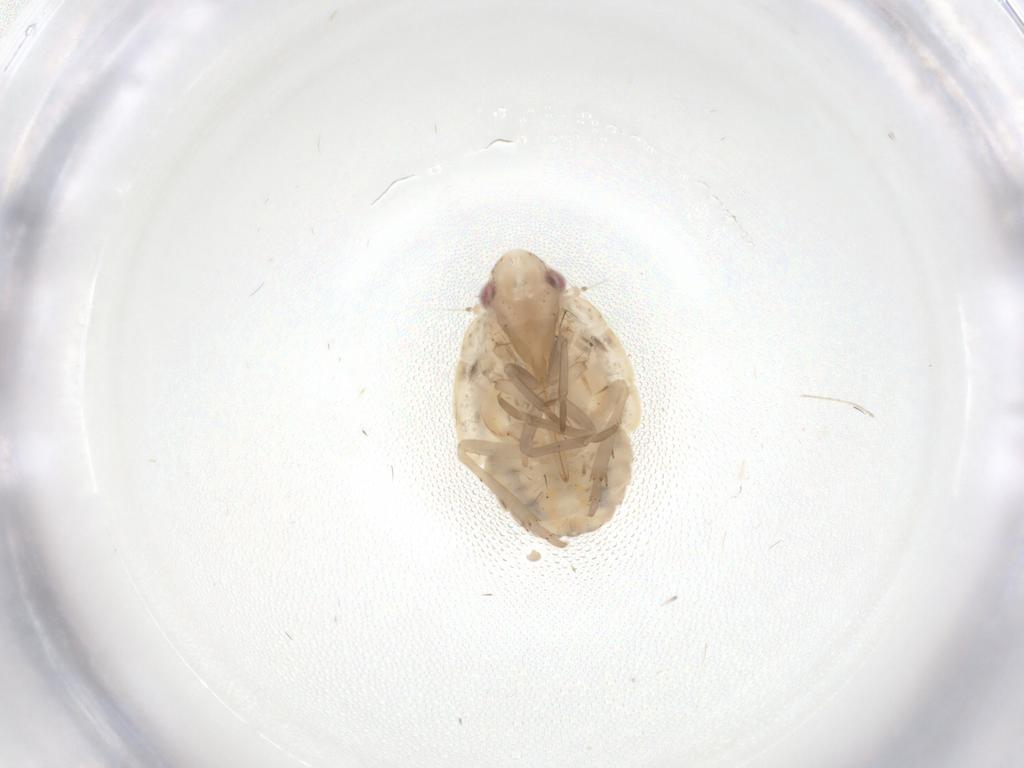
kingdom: Animalia
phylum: Arthropoda
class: Insecta
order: Hemiptera
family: Flatidae
